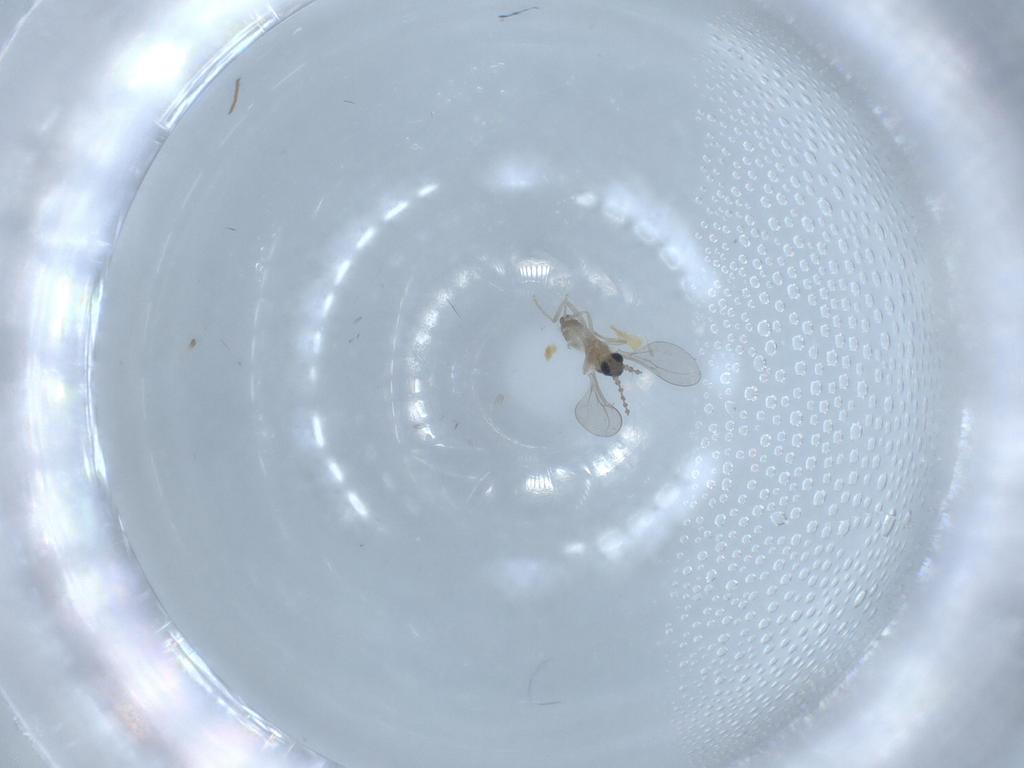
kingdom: Animalia
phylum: Arthropoda
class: Insecta
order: Diptera
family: Cecidomyiidae
